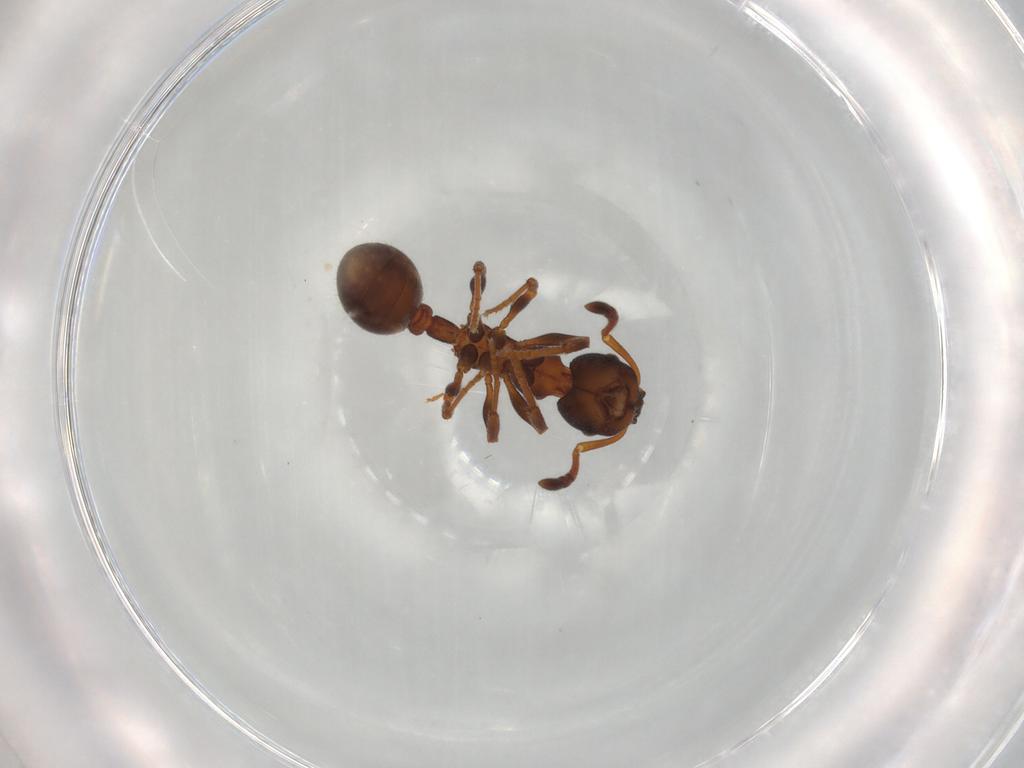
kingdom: Animalia
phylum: Arthropoda
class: Insecta
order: Hymenoptera
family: Formicidae
